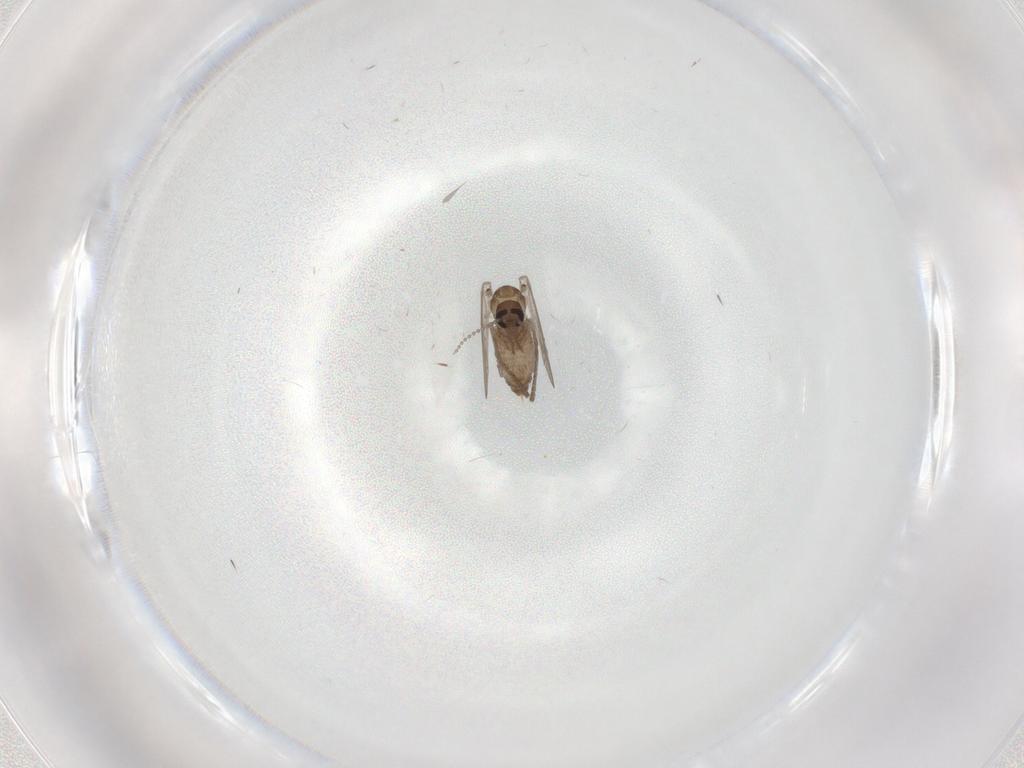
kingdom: Animalia
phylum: Arthropoda
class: Insecta
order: Diptera
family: Psychodidae
